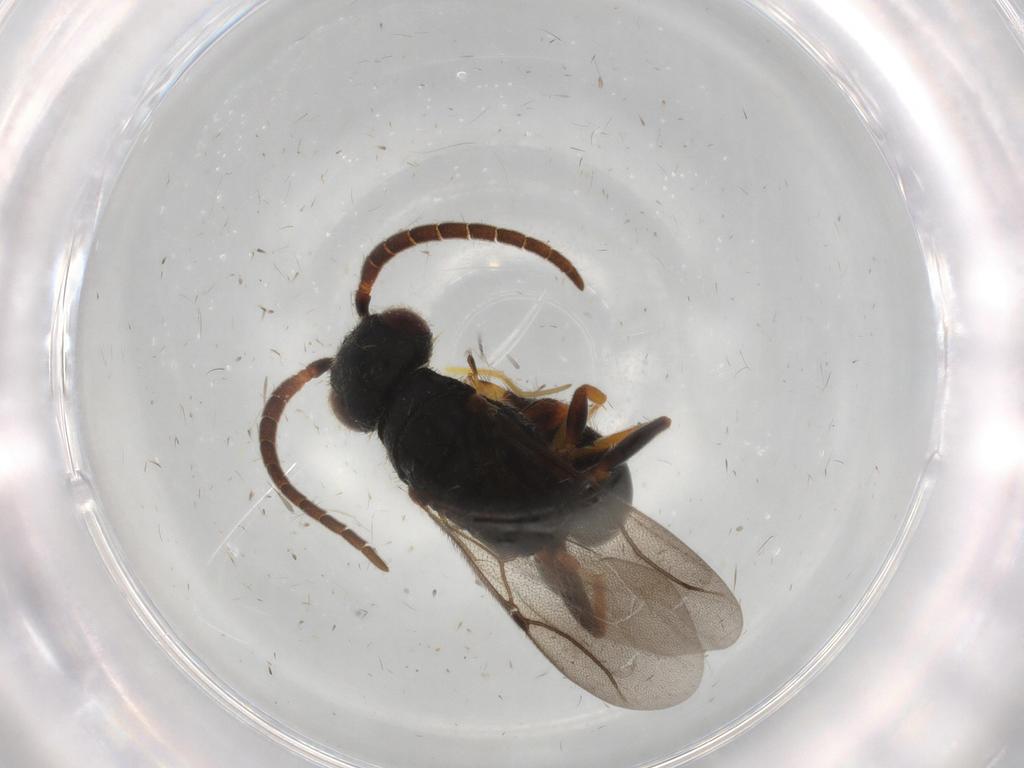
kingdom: Animalia
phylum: Arthropoda
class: Insecta
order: Hymenoptera
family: Bethylidae
